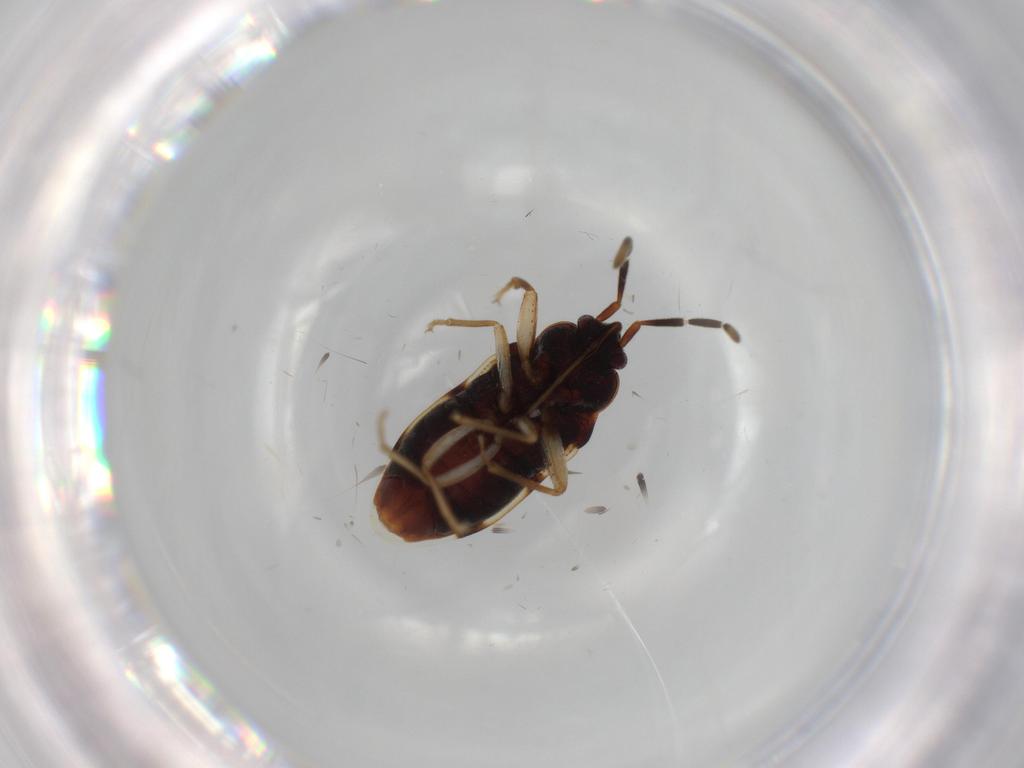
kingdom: Animalia
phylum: Arthropoda
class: Insecta
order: Hemiptera
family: Rhyparochromidae
